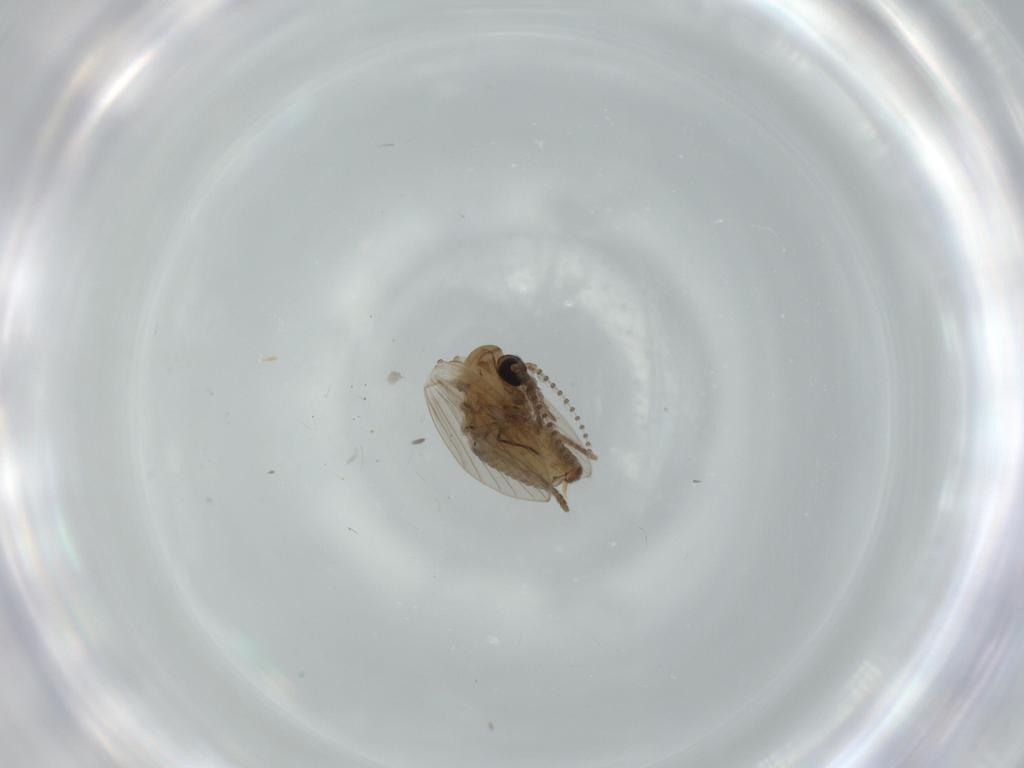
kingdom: Animalia
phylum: Arthropoda
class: Insecta
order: Diptera
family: Psychodidae
